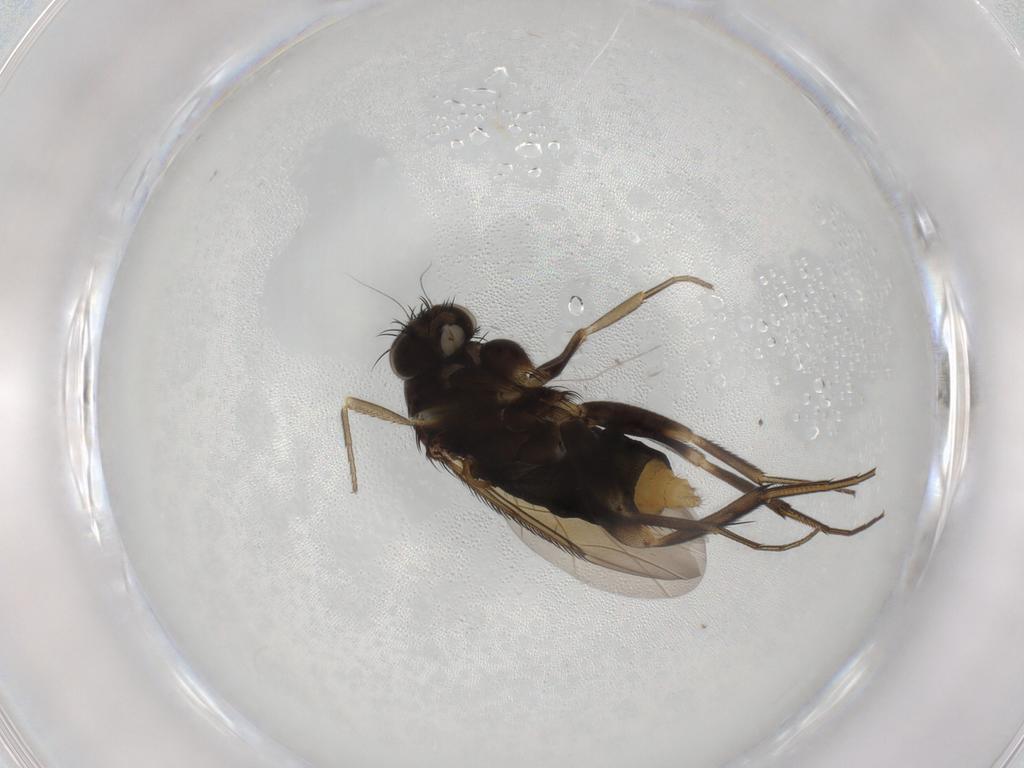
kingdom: Animalia
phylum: Arthropoda
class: Insecta
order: Diptera
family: Phoridae
